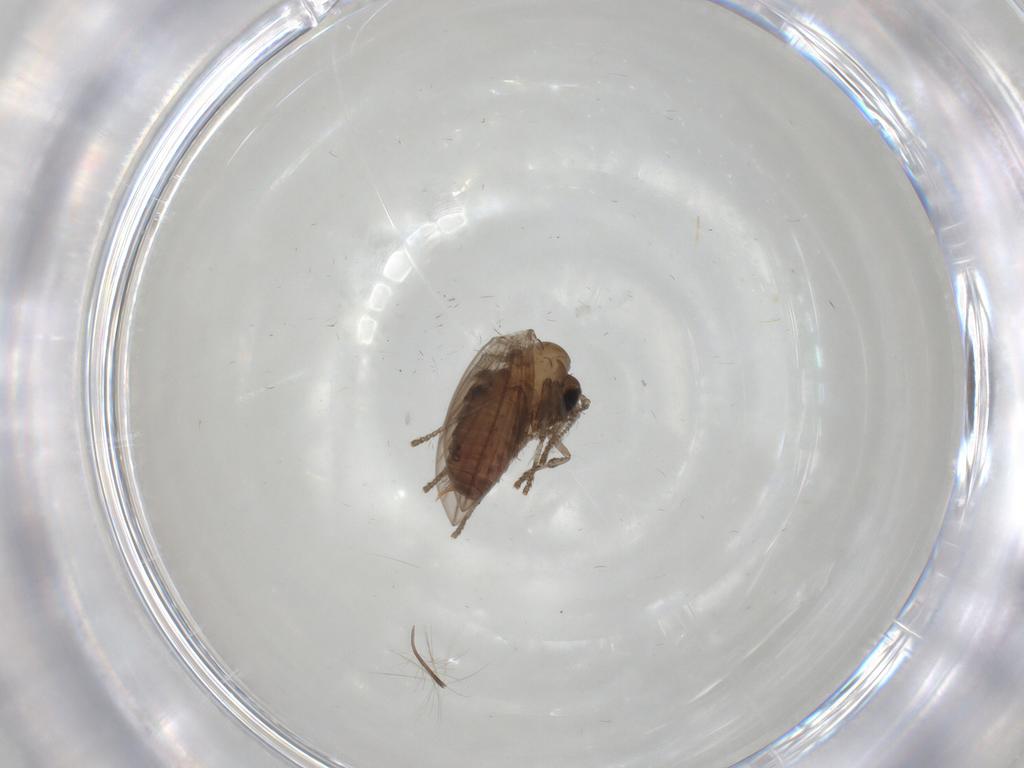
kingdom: Animalia
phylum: Arthropoda
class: Insecta
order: Diptera
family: Psychodidae
